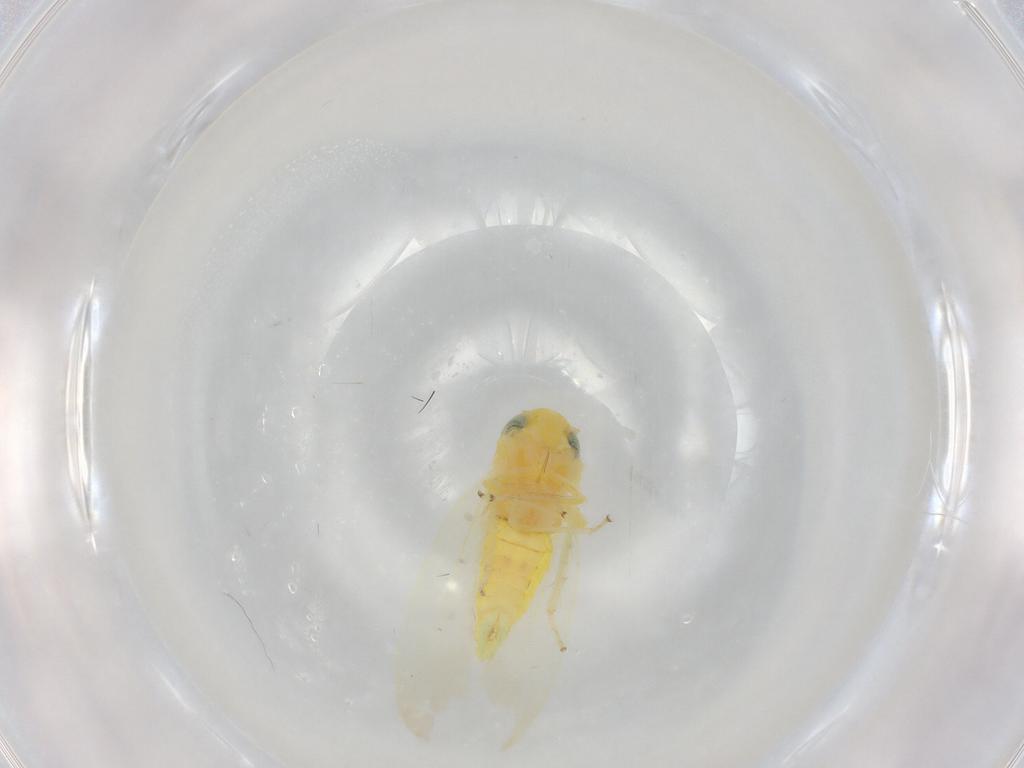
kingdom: Animalia
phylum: Arthropoda
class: Insecta
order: Hemiptera
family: Cicadellidae
